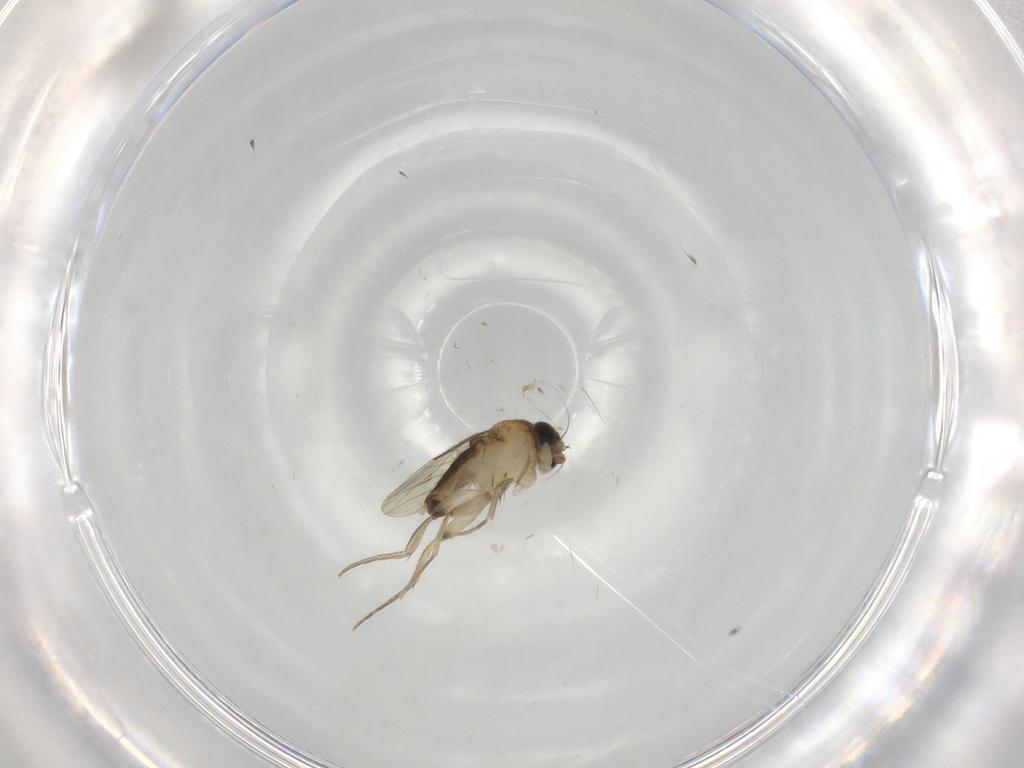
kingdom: Animalia
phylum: Arthropoda
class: Insecta
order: Diptera
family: Phoridae
